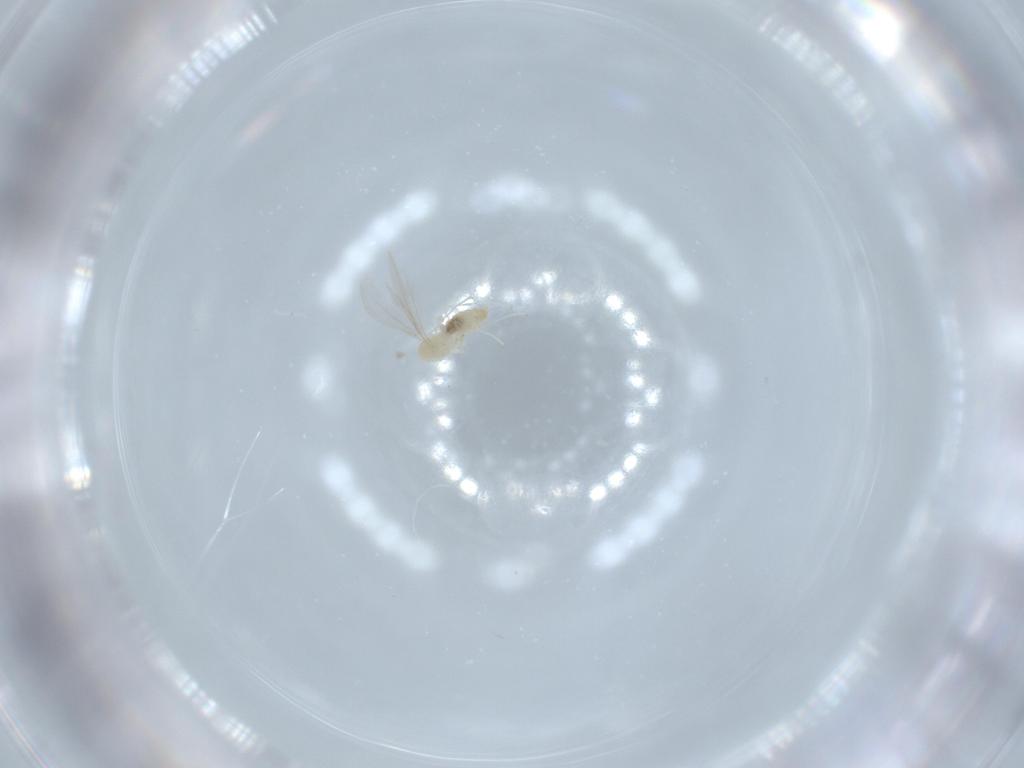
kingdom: Animalia
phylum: Arthropoda
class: Insecta
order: Diptera
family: Cecidomyiidae
